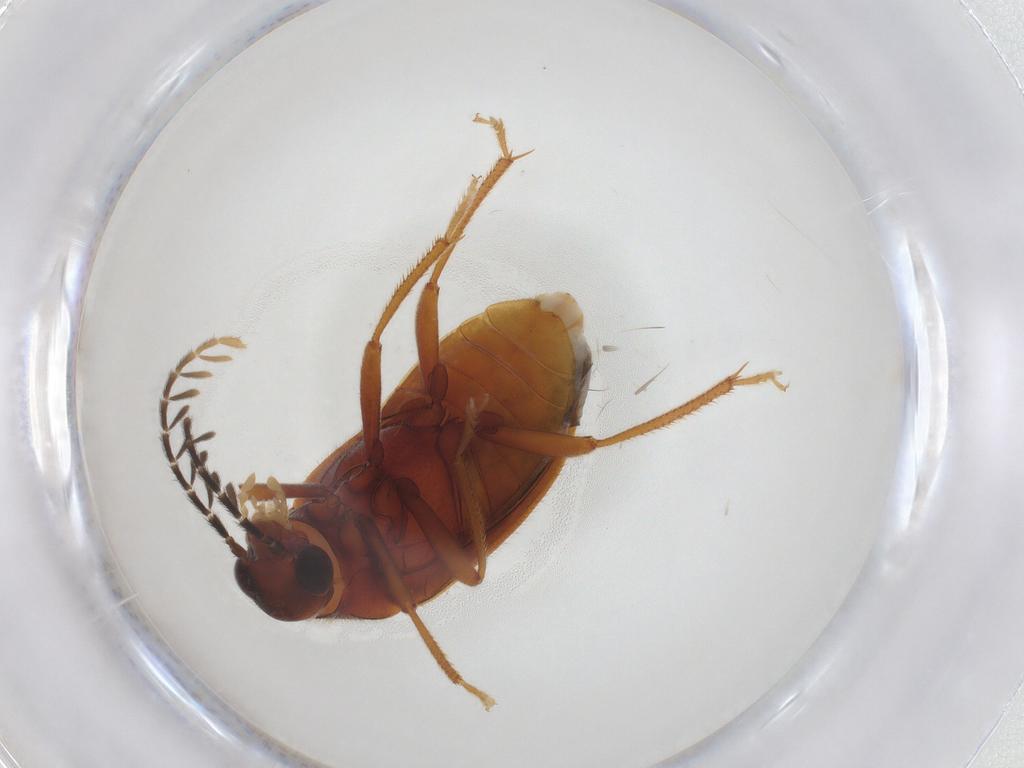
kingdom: Animalia
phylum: Arthropoda
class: Insecta
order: Coleoptera
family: Ptilodactylidae
